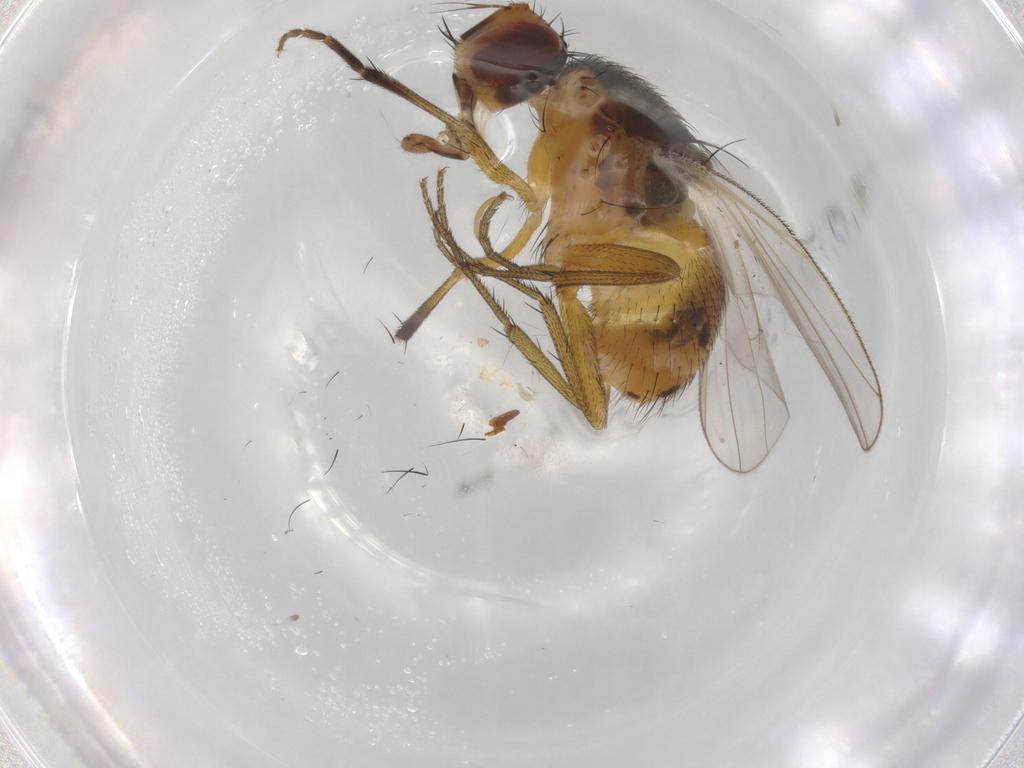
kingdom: Animalia
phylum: Arthropoda
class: Insecta
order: Diptera
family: Muscidae
